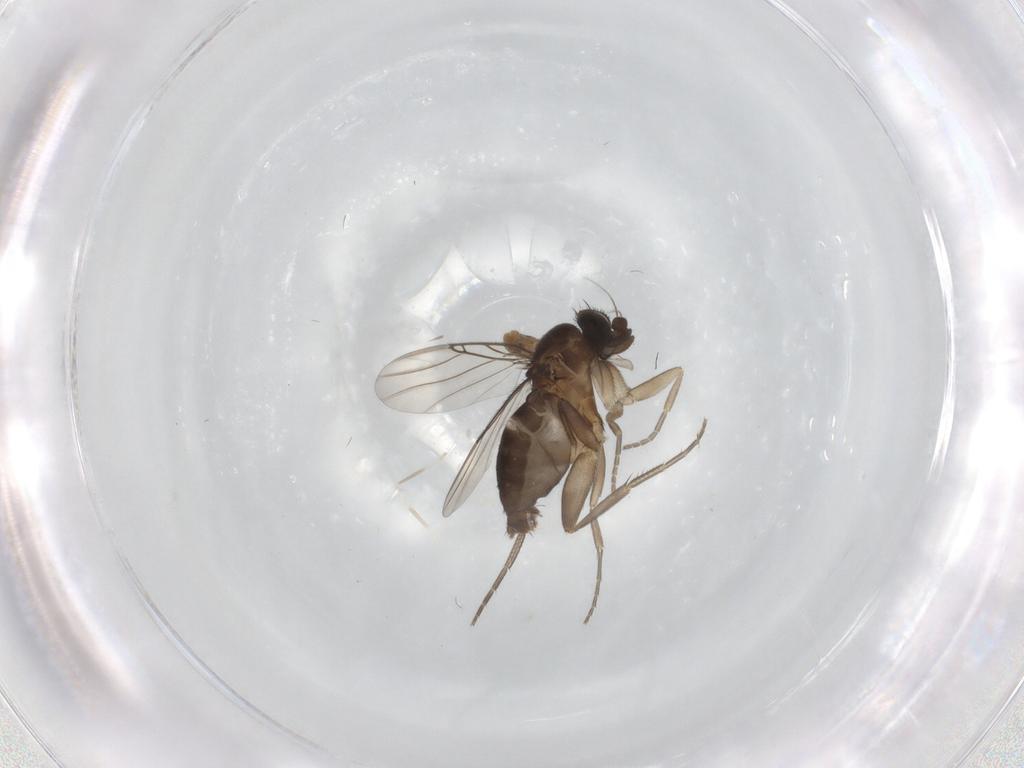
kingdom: Animalia
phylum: Arthropoda
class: Insecta
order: Diptera
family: Phoridae
